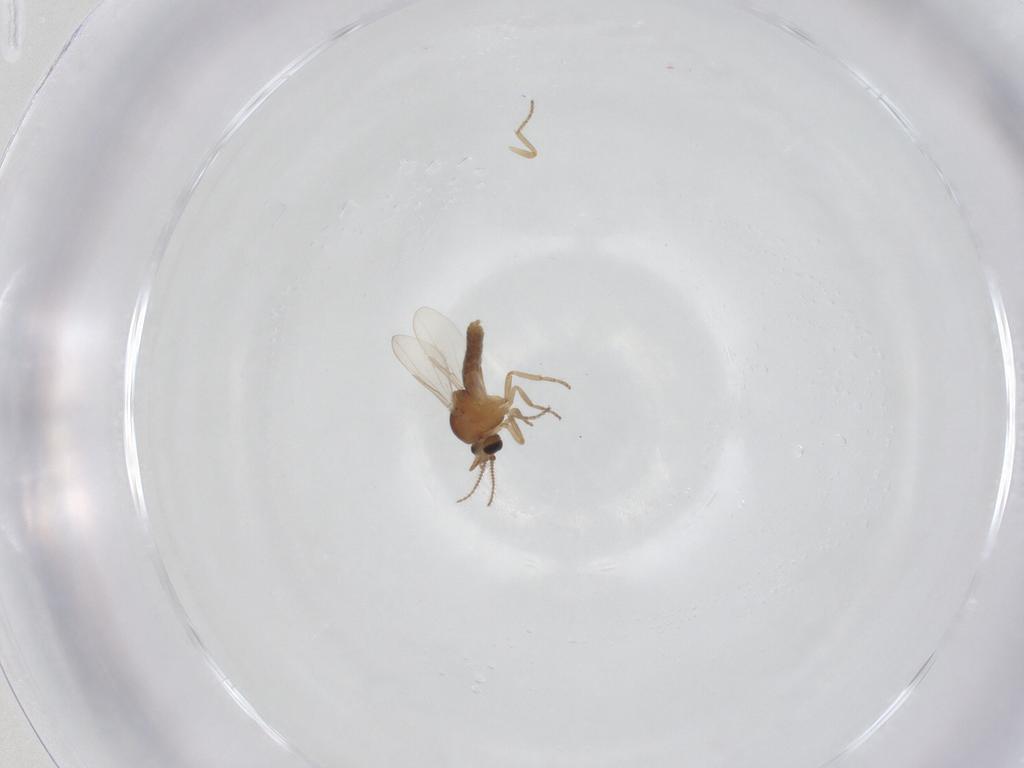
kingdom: Animalia
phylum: Arthropoda
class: Insecta
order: Diptera
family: Ceratopogonidae
